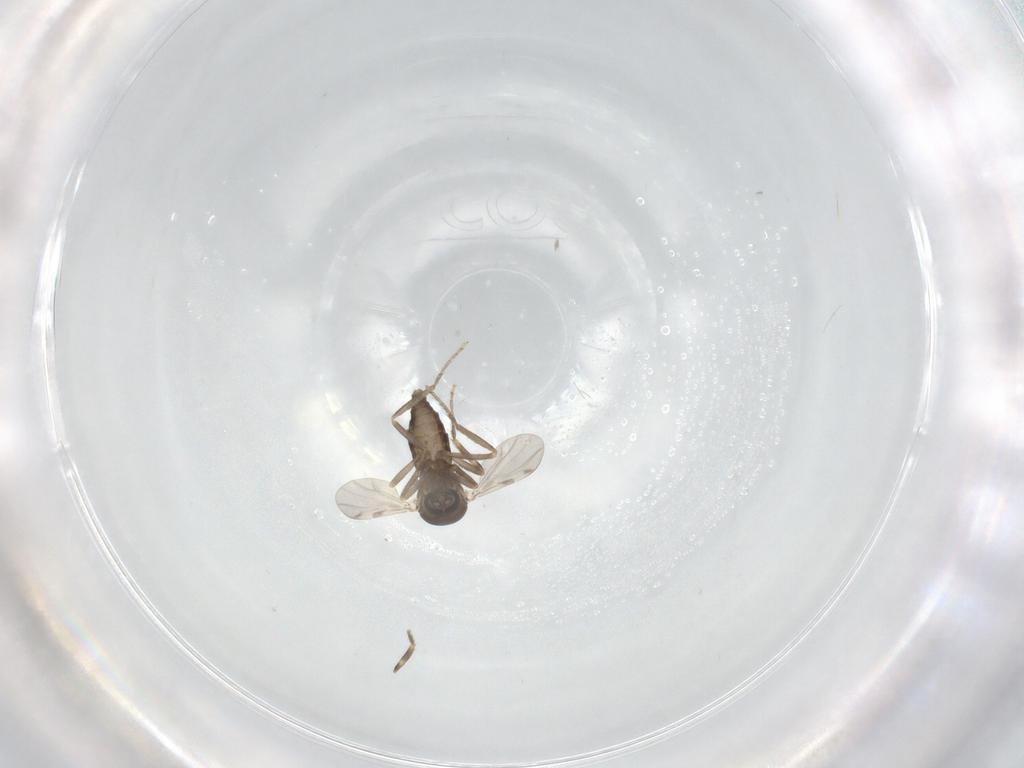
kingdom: Animalia
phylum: Arthropoda
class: Insecta
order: Diptera
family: Ceratopogonidae
